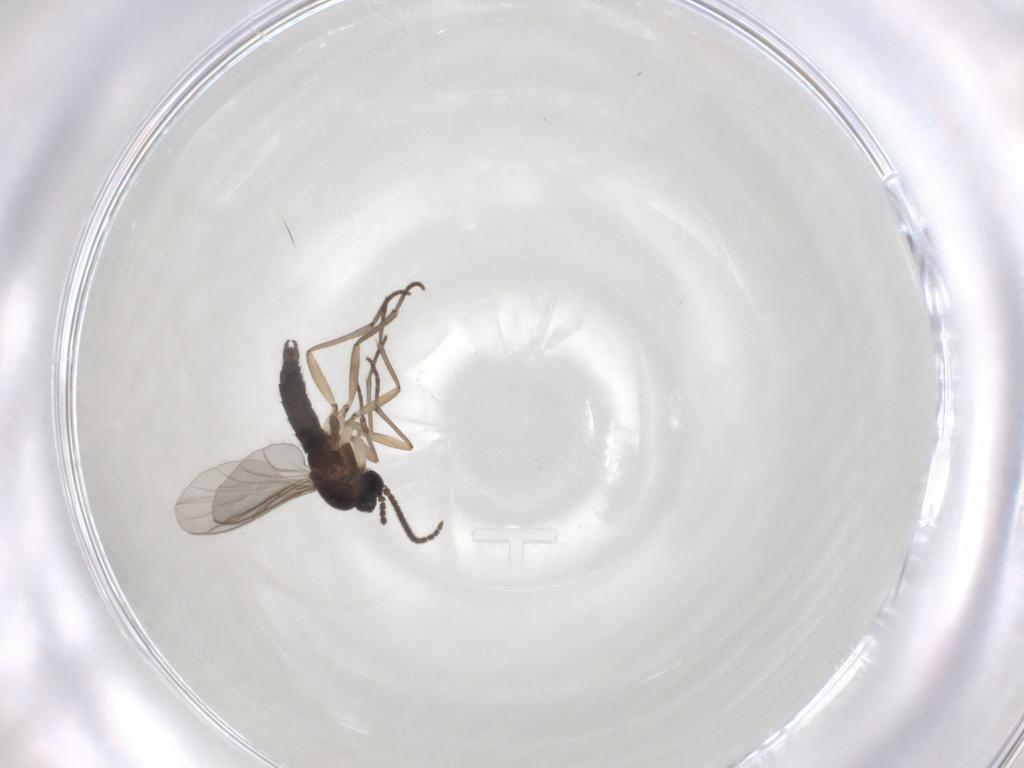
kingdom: Animalia
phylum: Arthropoda
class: Insecta
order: Diptera
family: Sciaridae
